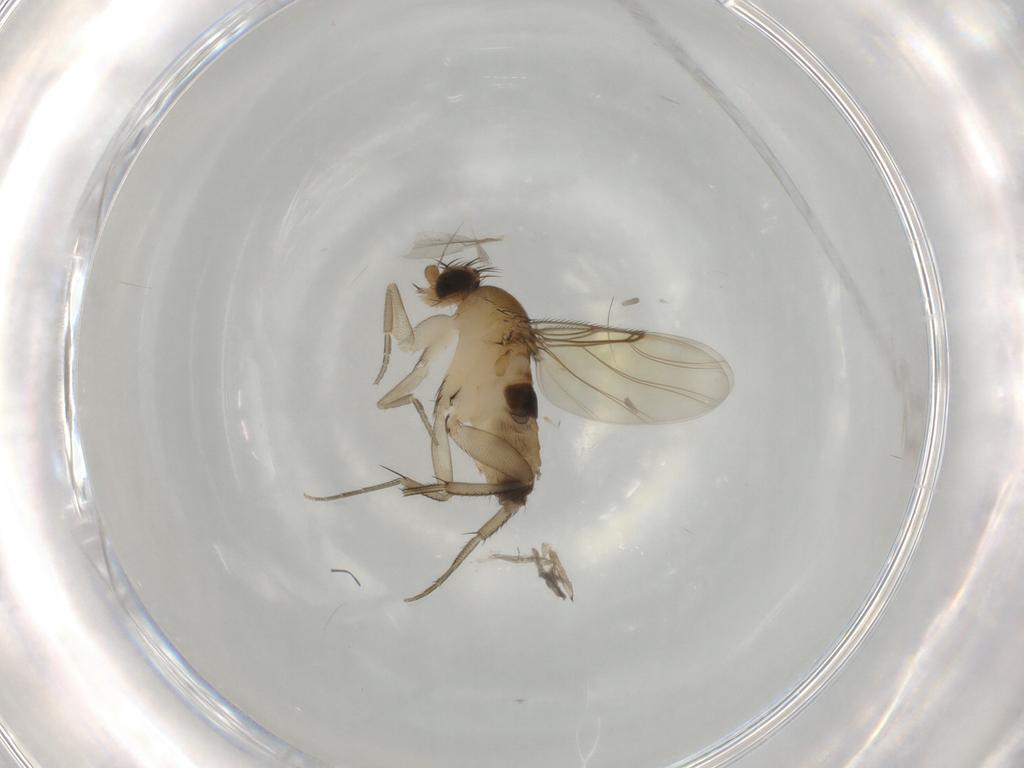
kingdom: Animalia
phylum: Arthropoda
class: Insecta
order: Diptera
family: Phoridae
